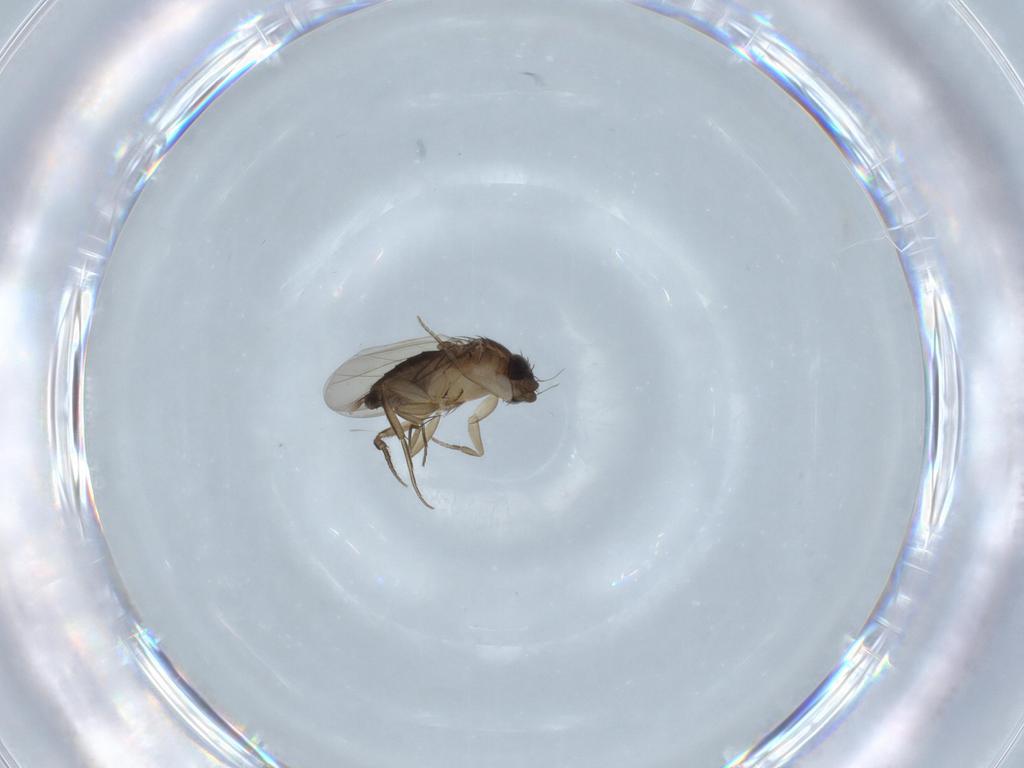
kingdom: Animalia
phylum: Arthropoda
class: Insecta
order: Diptera
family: Phoridae
